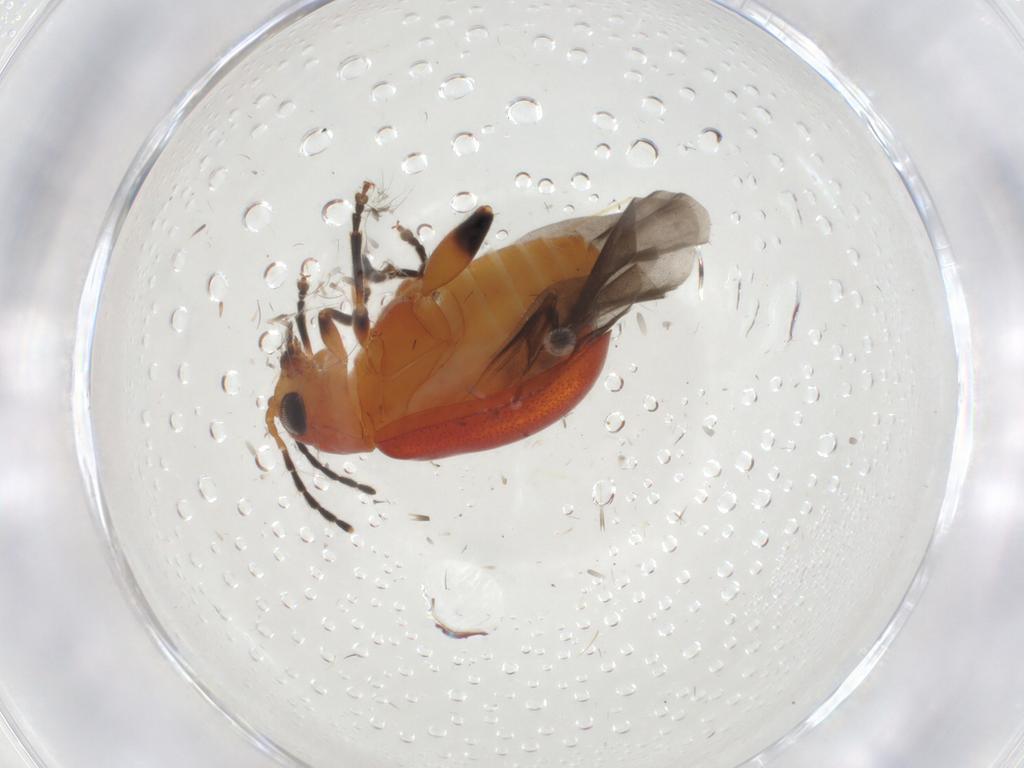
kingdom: Animalia
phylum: Arthropoda
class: Insecta
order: Coleoptera
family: Chrysomelidae
